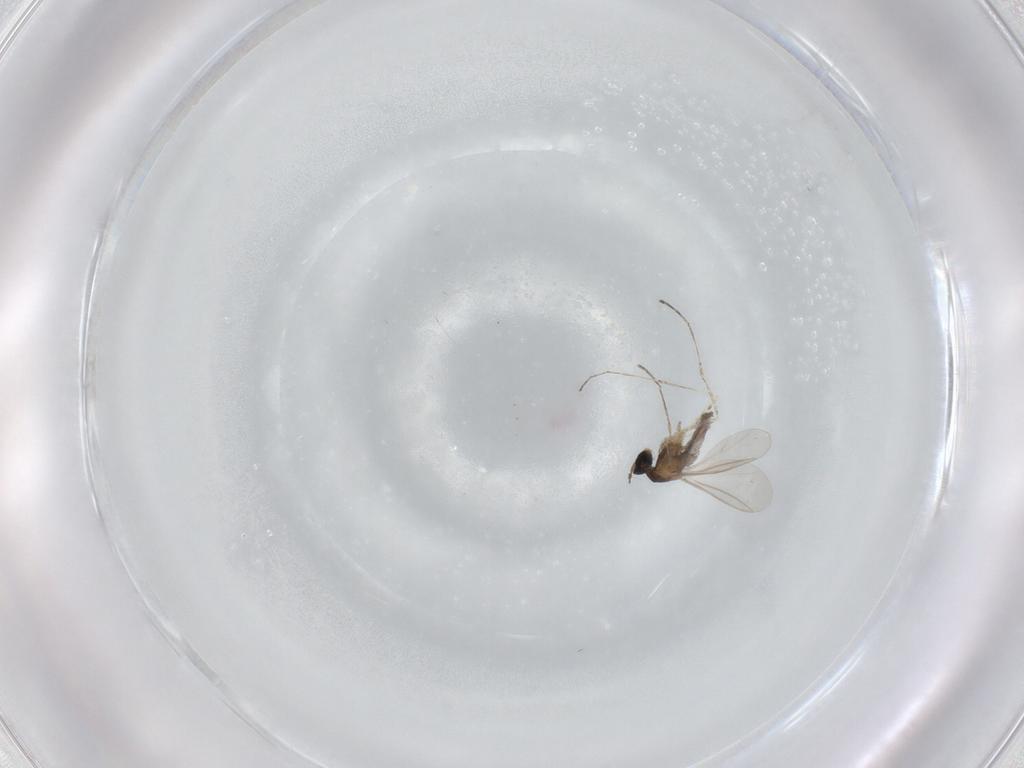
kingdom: Animalia
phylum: Arthropoda
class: Insecta
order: Diptera
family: Cecidomyiidae
